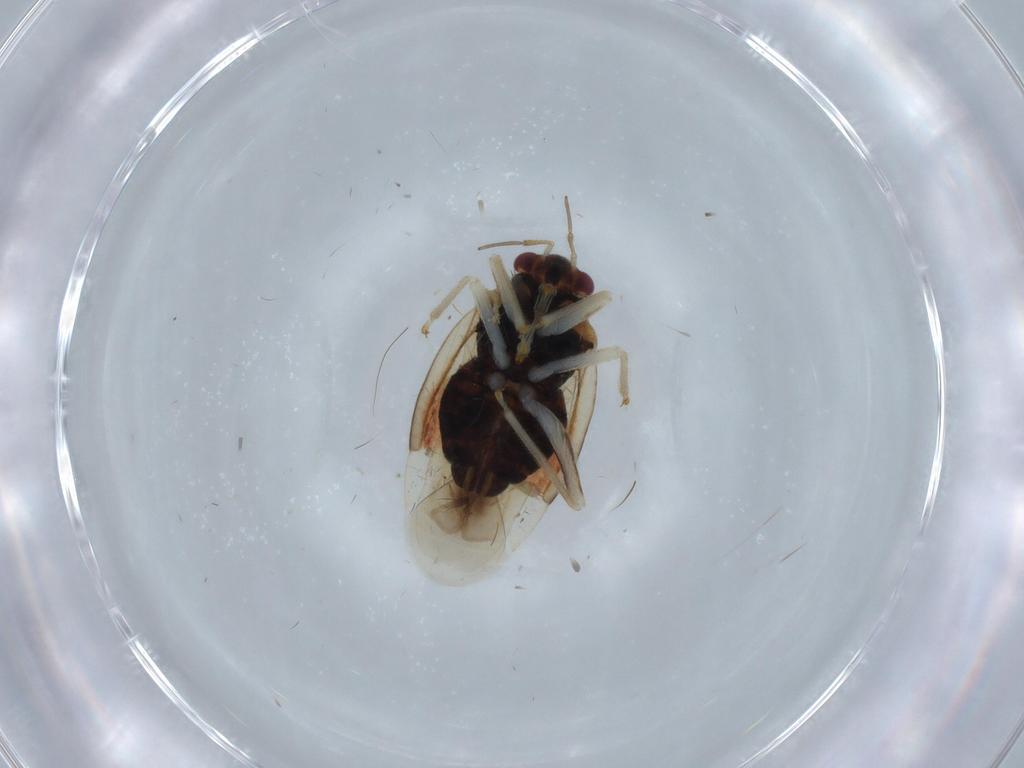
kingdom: Animalia
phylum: Arthropoda
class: Insecta
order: Hemiptera
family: Miridae
